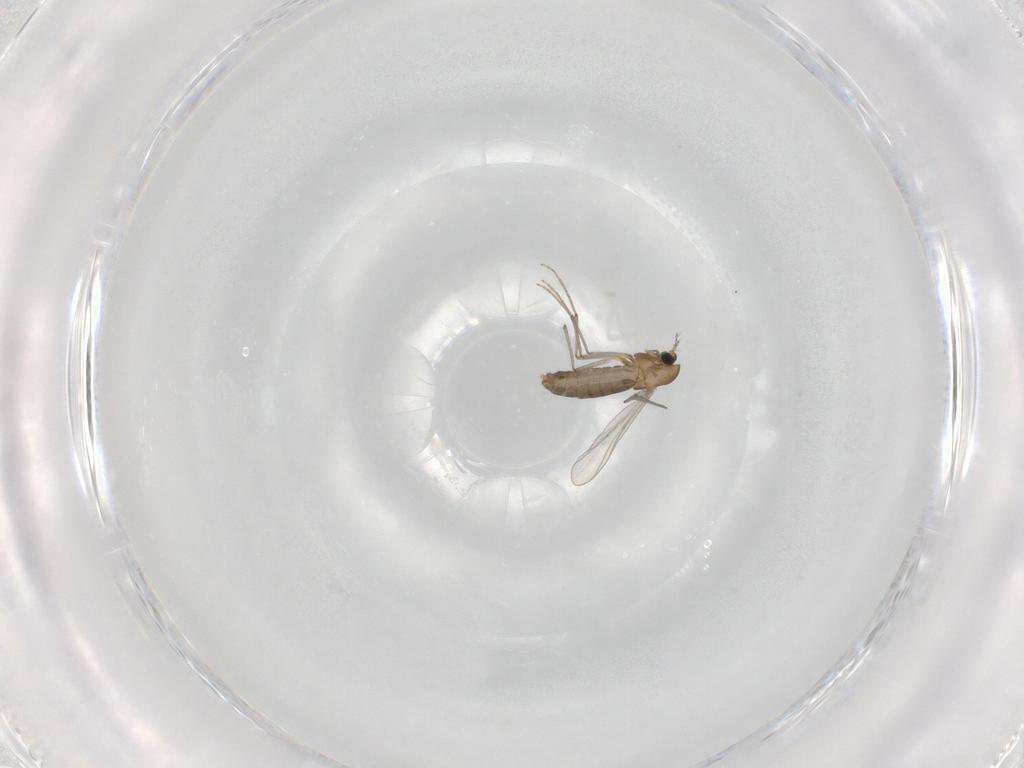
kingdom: Animalia
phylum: Arthropoda
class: Insecta
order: Diptera
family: Chironomidae
